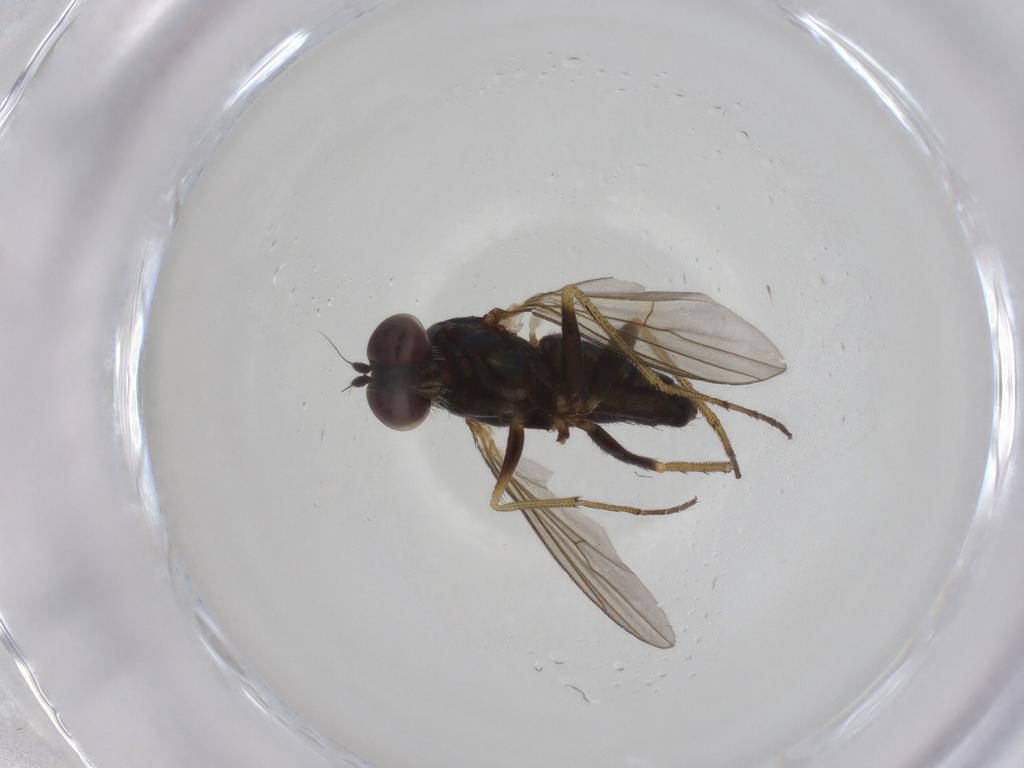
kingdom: Animalia
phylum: Arthropoda
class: Insecta
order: Diptera
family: Dolichopodidae
